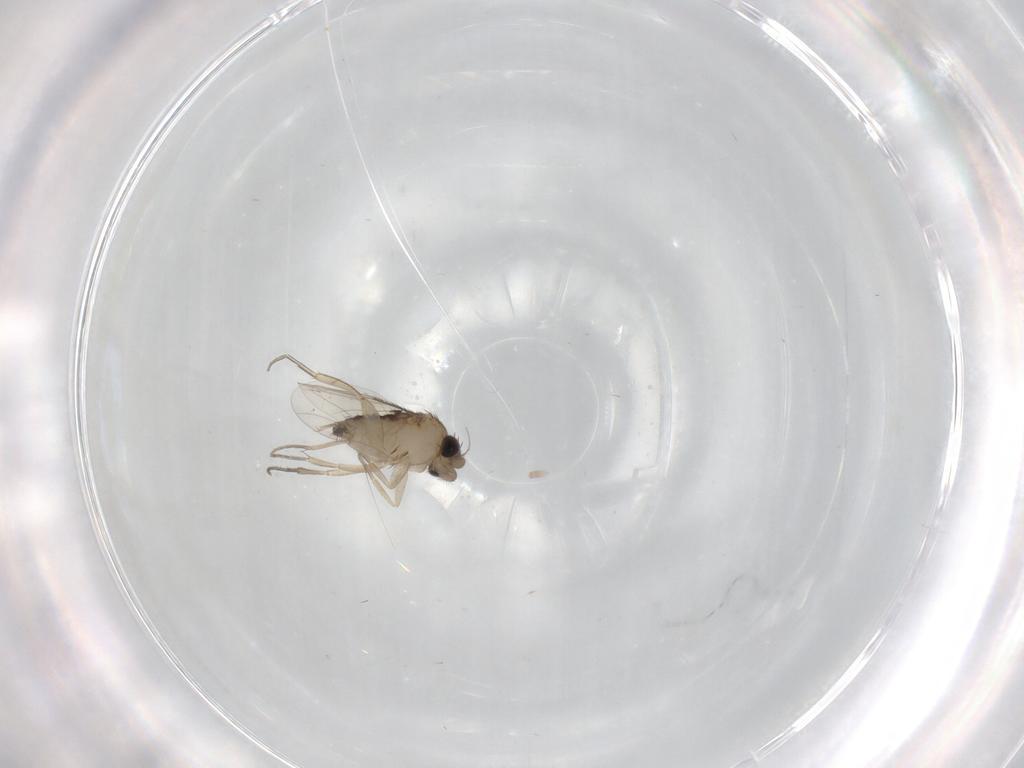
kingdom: Animalia
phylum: Arthropoda
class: Insecta
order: Diptera
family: Phoridae
